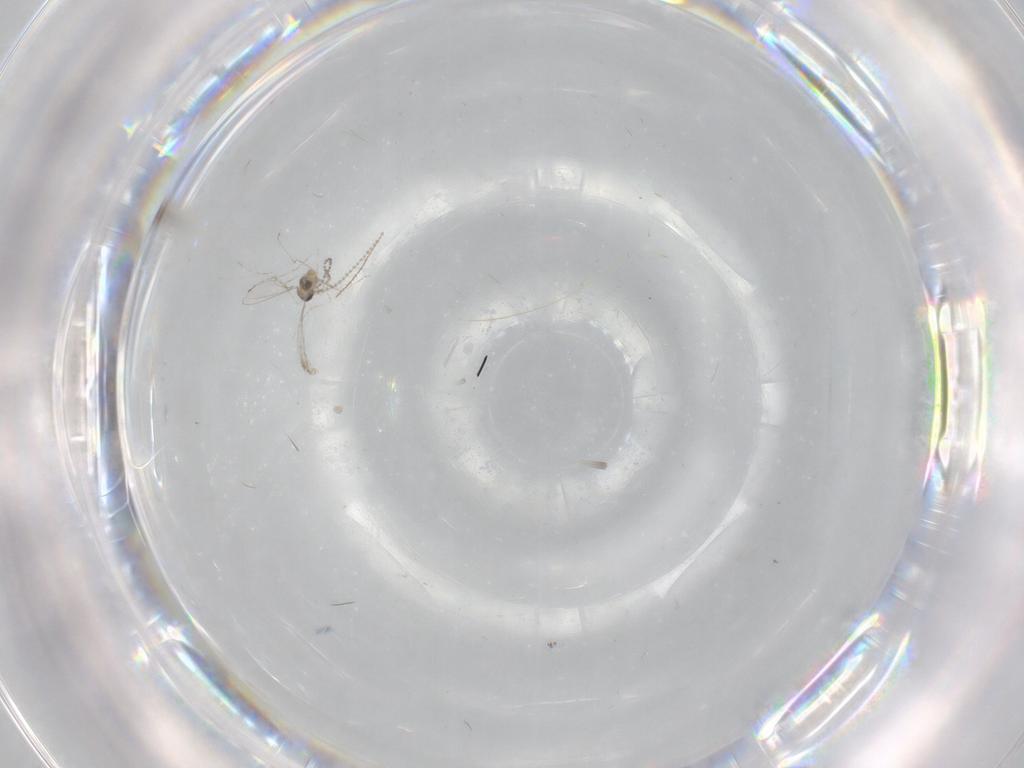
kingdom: Animalia
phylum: Arthropoda
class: Insecta
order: Diptera
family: Cecidomyiidae
